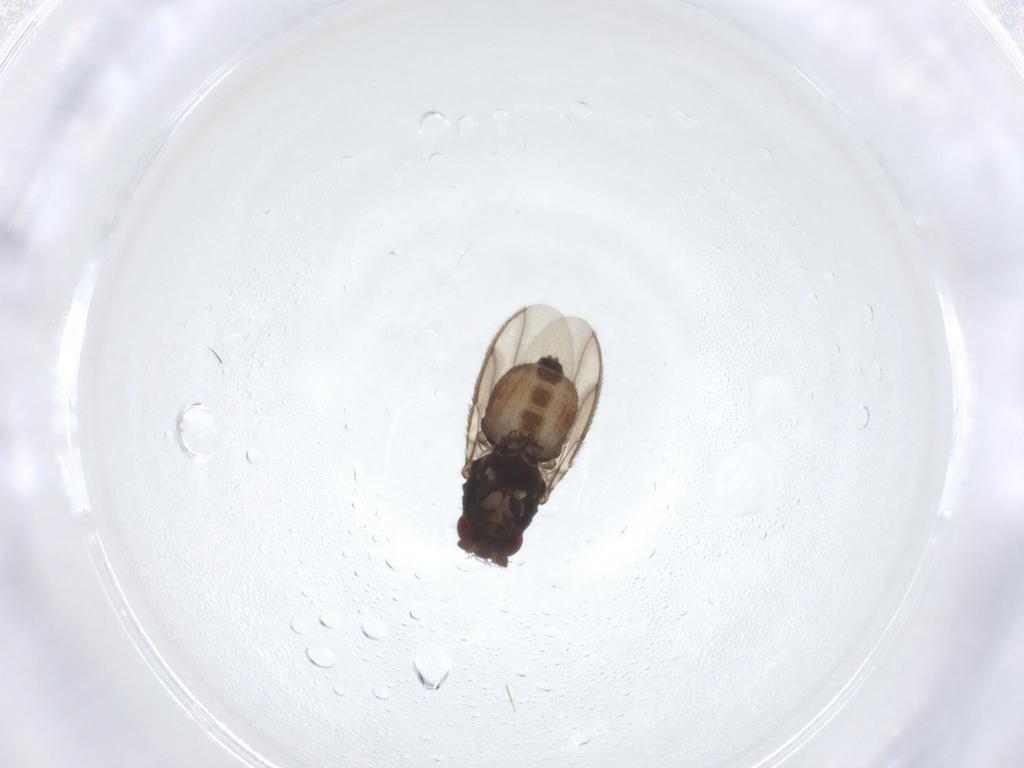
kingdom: Animalia
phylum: Arthropoda
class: Insecta
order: Diptera
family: Sphaeroceridae
